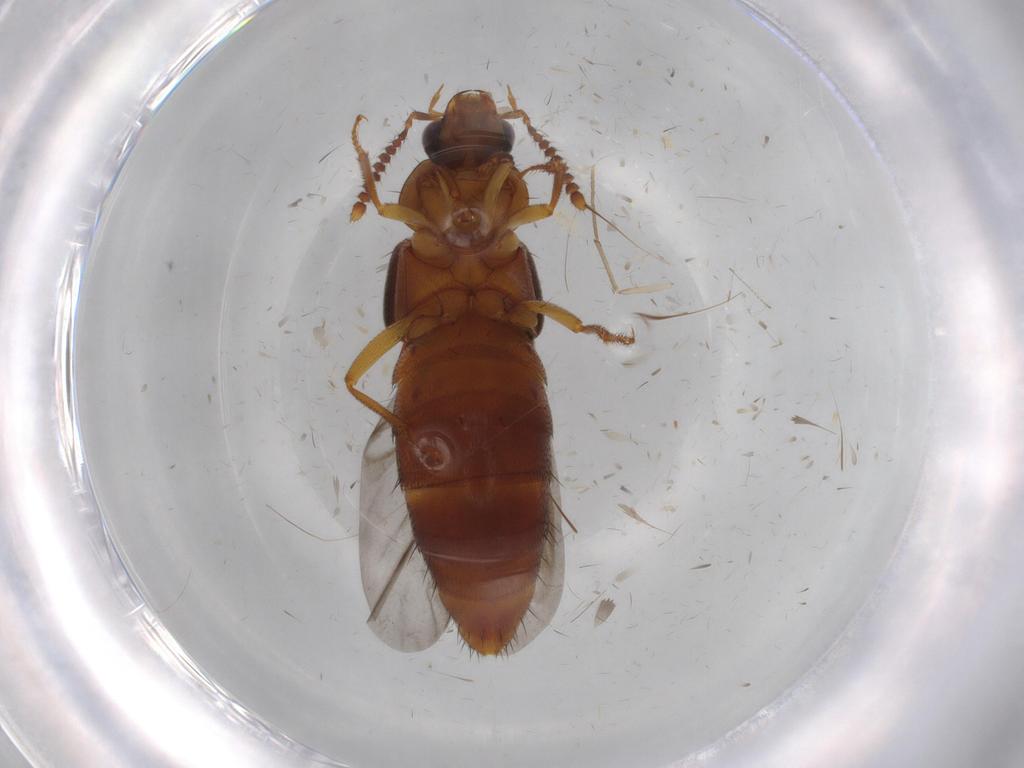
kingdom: Animalia
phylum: Arthropoda
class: Insecta
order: Coleoptera
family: Staphylinidae
